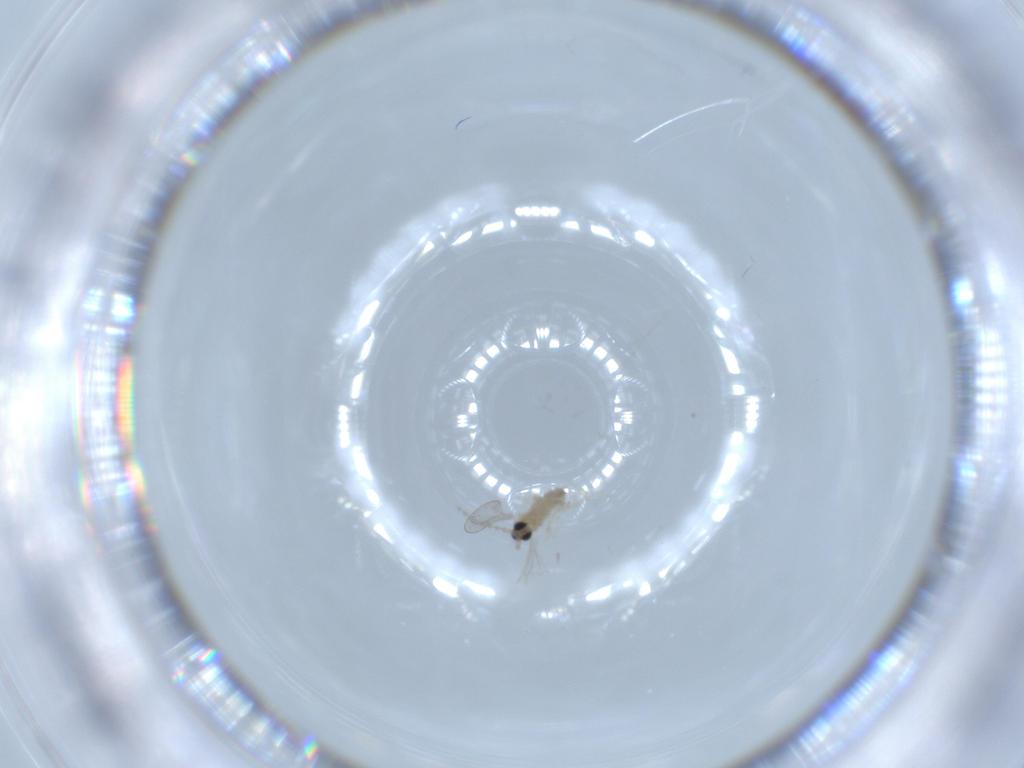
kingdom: Animalia
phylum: Arthropoda
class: Insecta
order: Diptera
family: Cecidomyiidae
